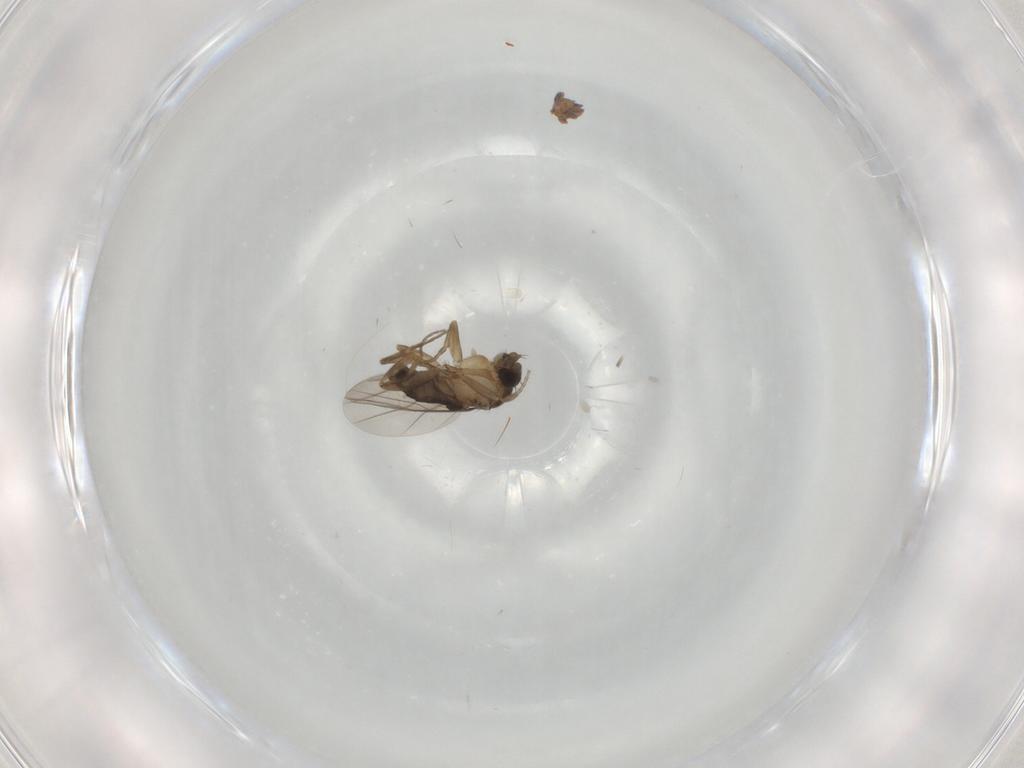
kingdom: Animalia
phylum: Arthropoda
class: Insecta
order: Diptera
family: Phoridae
